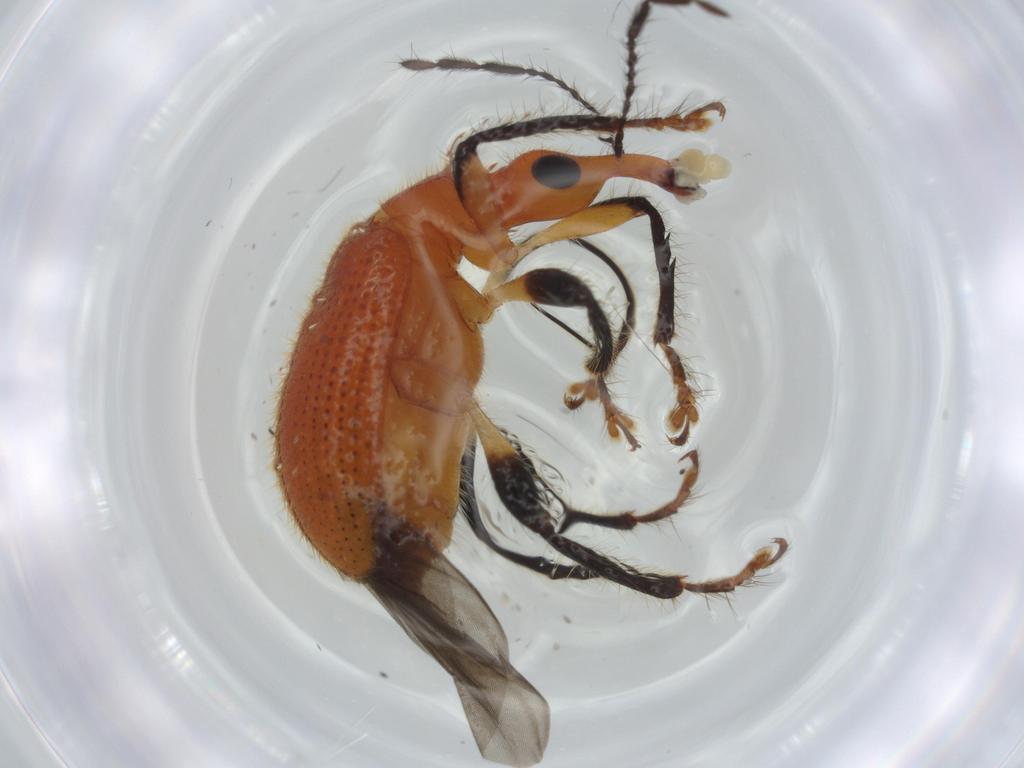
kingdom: Animalia
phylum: Arthropoda
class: Insecta
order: Coleoptera
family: Attelabidae
